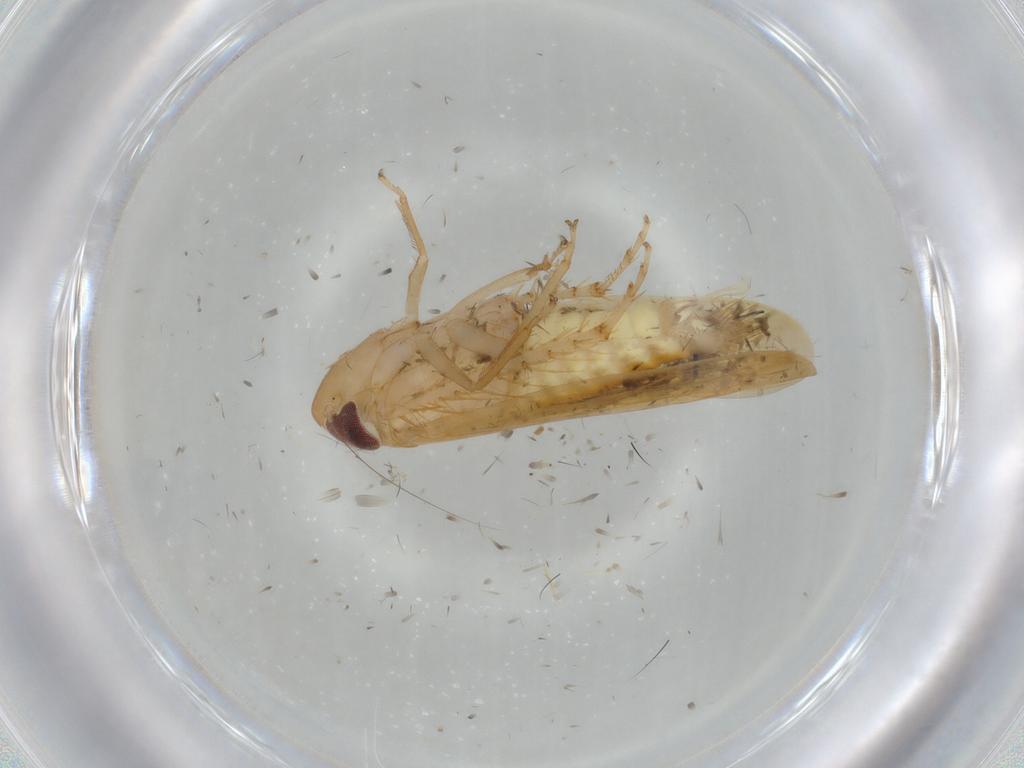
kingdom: Animalia
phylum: Arthropoda
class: Insecta
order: Hemiptera
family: Cicadellidae
